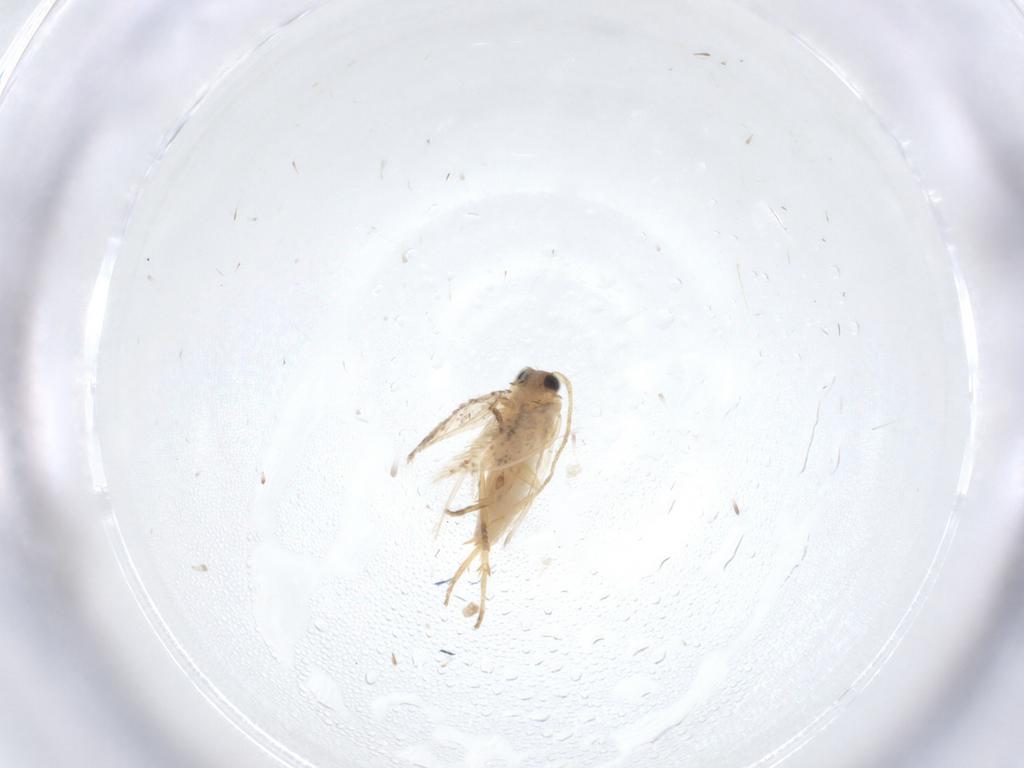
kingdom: Animalia
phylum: Arthropoda
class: Insecta
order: Lepidoptera
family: Nepticulidae
